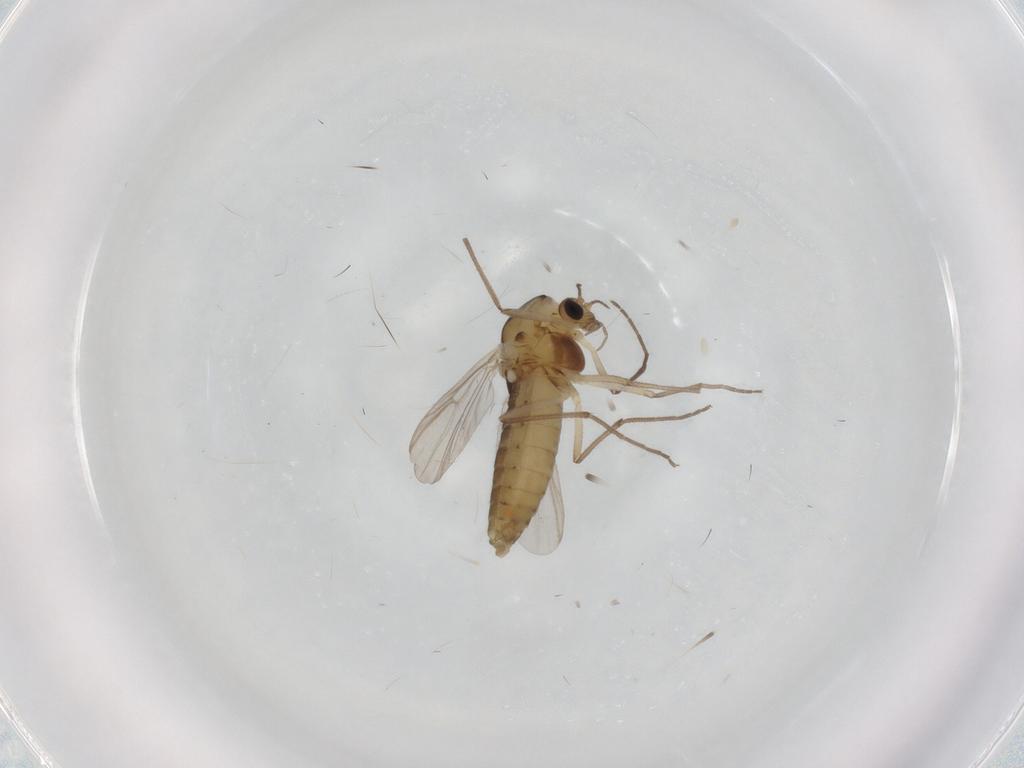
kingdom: Animalia
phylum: Arthropoda
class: Insecta
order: Diptera
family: Chironomidae
